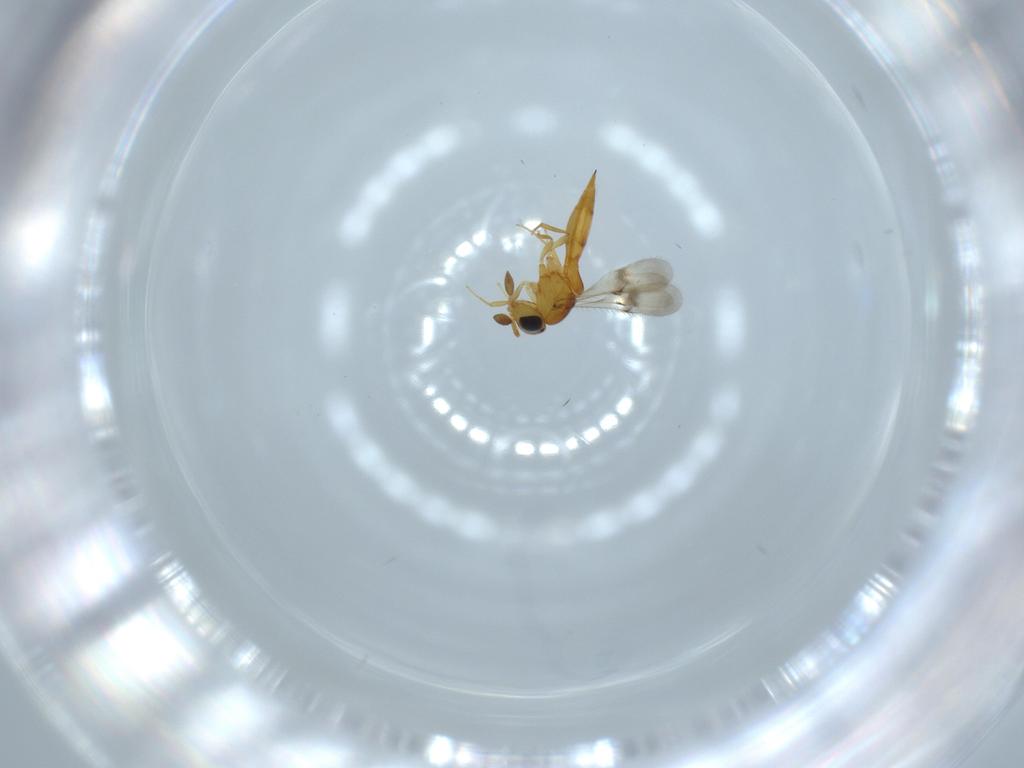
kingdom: Animalia
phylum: Arthropoda
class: Insecta
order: Hymenoptera
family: Scelionidae
